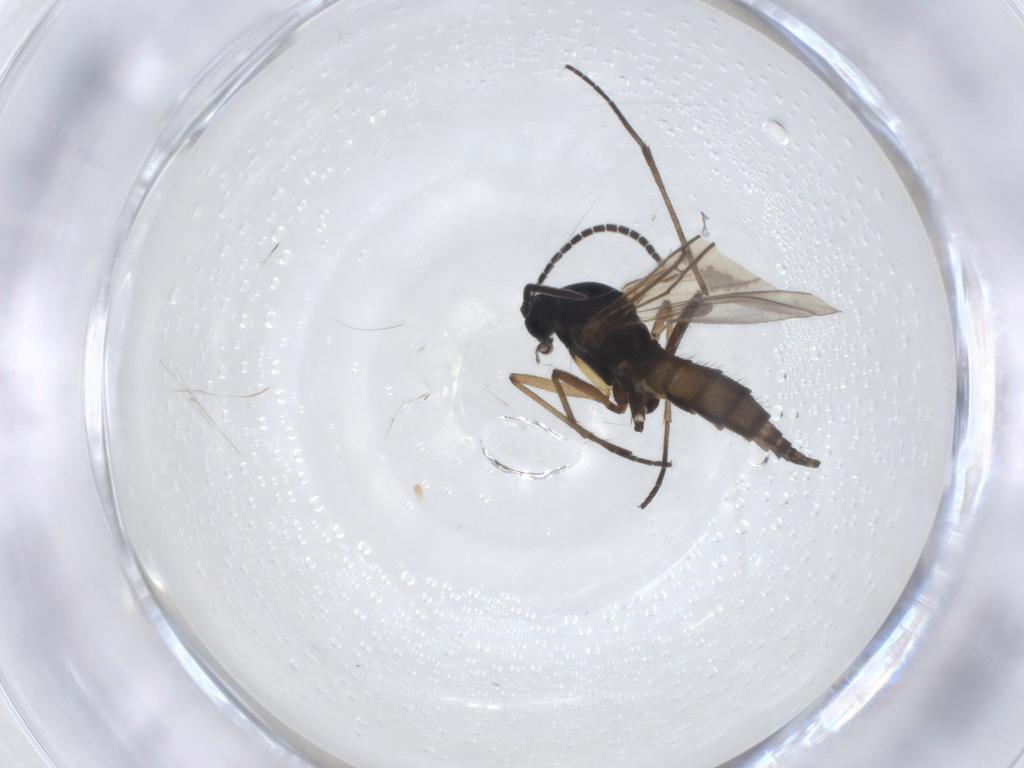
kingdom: Animalia
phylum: Arthropoda
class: Insecta
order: Diptera
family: Sciaridae
